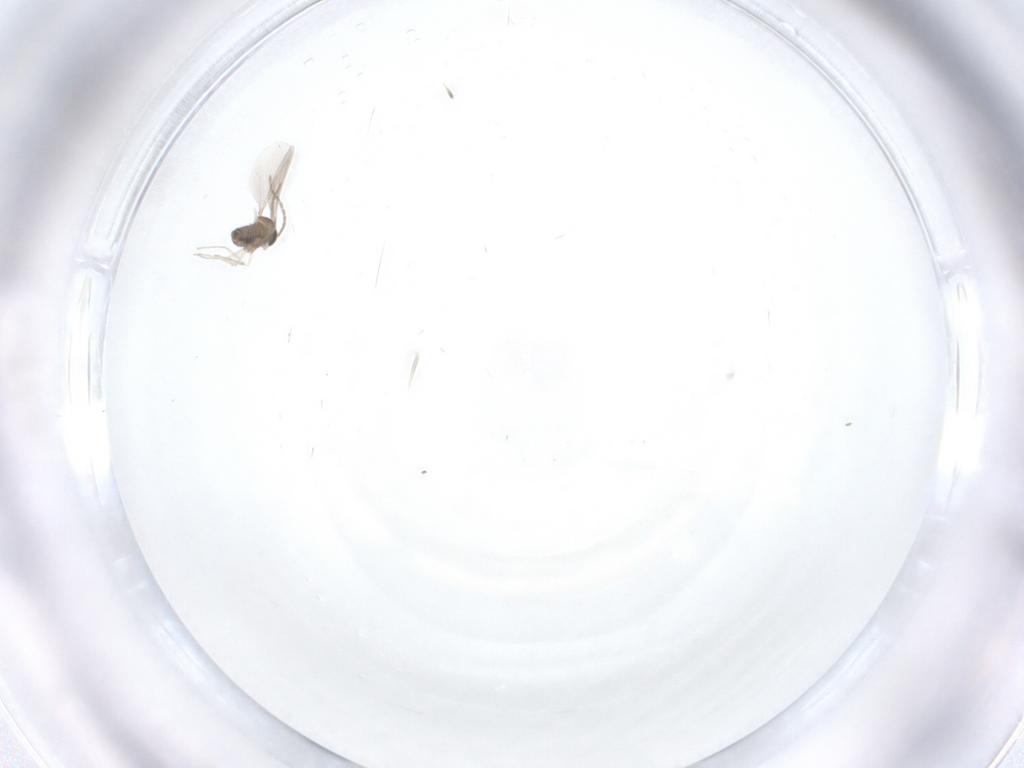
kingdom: Animalia
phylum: Arthropoda
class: Insecta
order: Diptera
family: Cecidomyiidae
